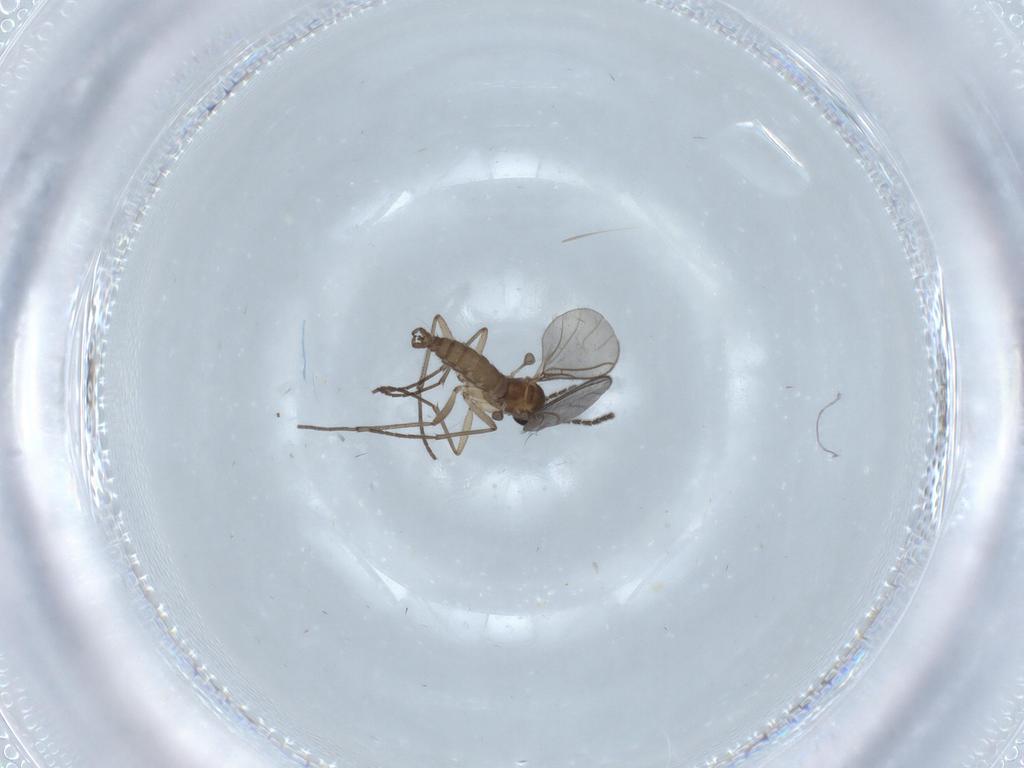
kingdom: Animalia
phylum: Arthropoda
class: Insecta
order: Diptera
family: Sciaridae
